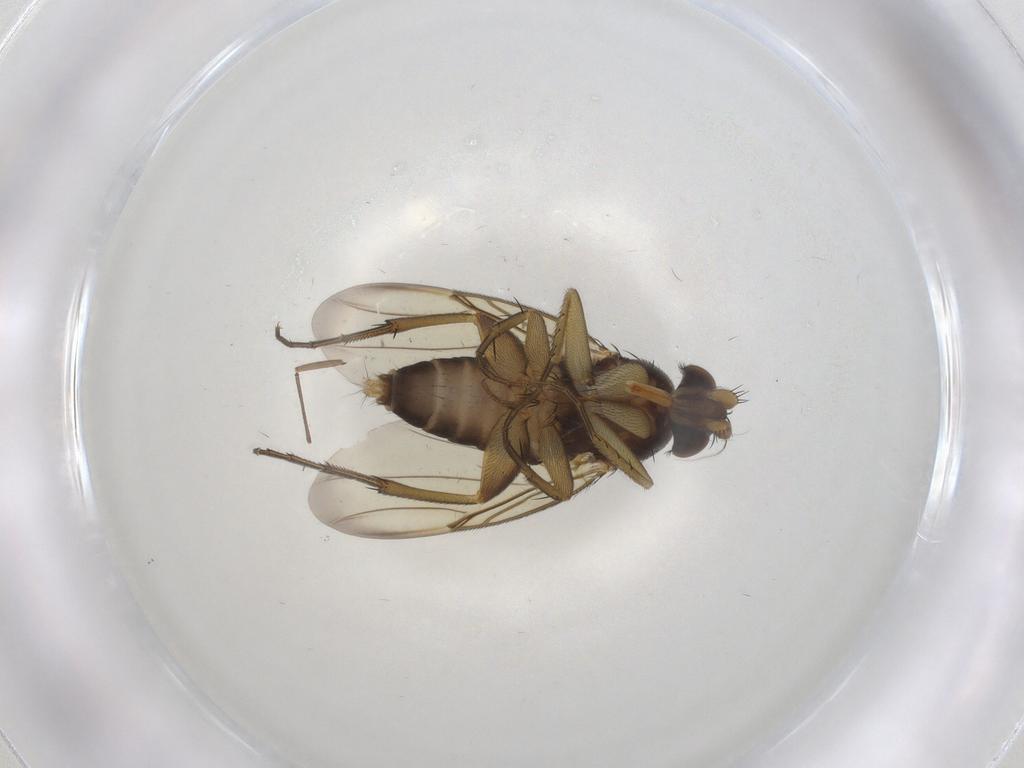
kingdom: Animalia
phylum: Arthropoda
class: Insecta
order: Diptera
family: Phoridae
